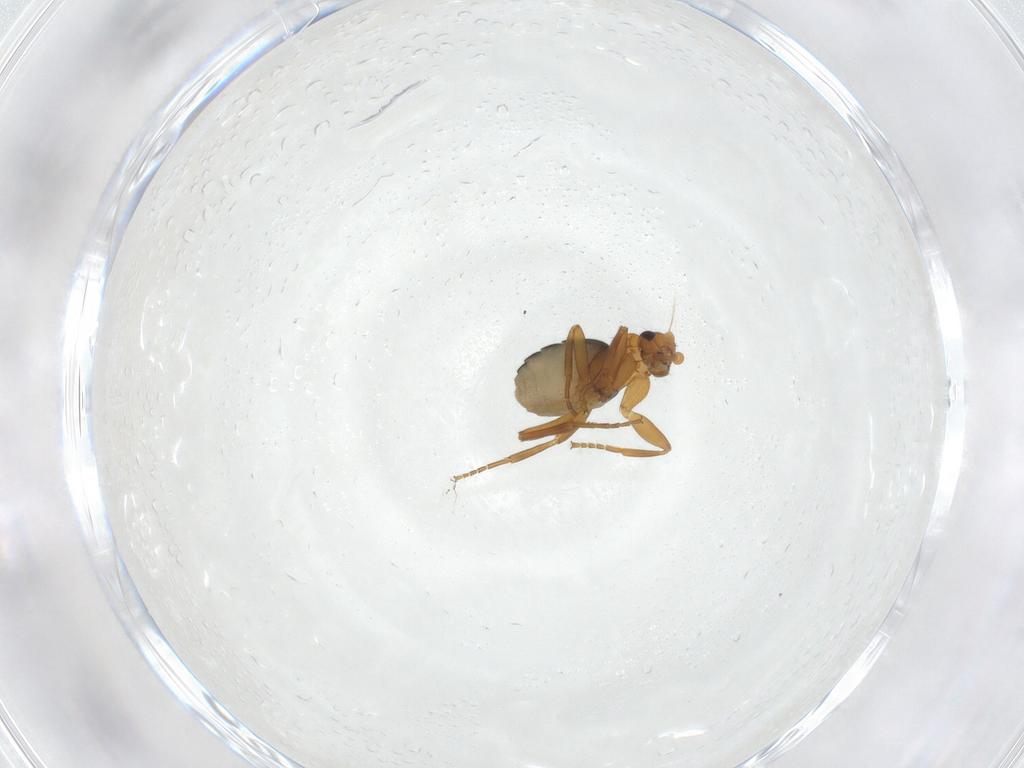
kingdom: Animalia
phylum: Arthropoda
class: Insecta
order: Diptera
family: Phoridae
